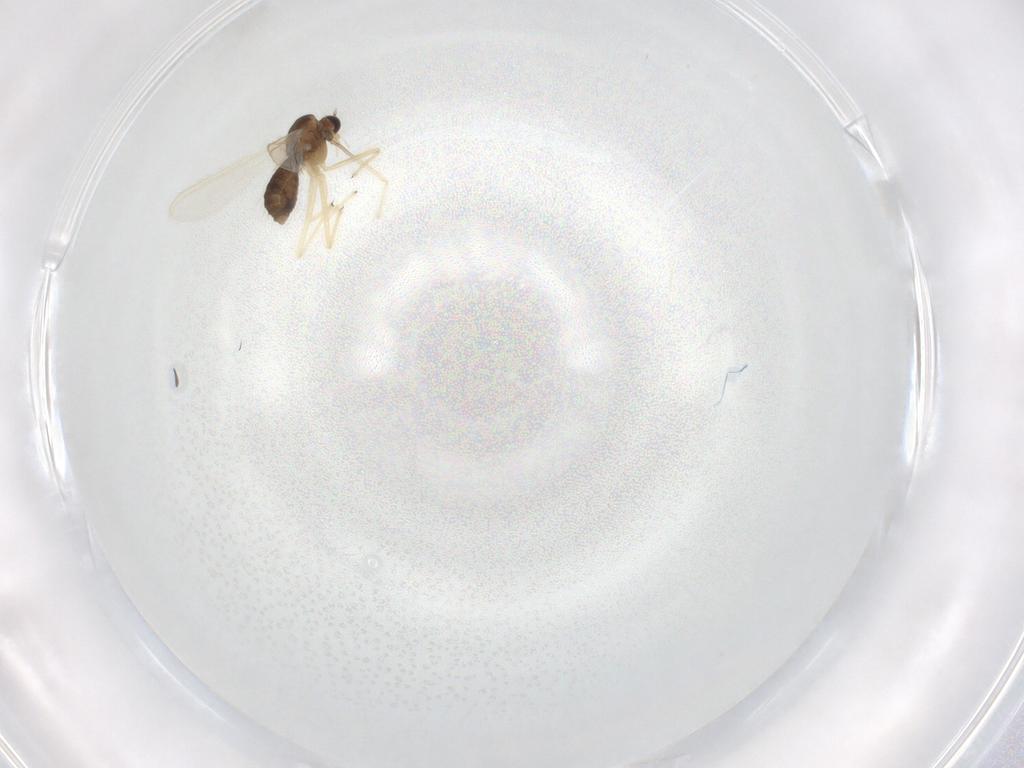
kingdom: Animalia
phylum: Arthropoda
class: Insecta
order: Diptera
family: Chironomidae
